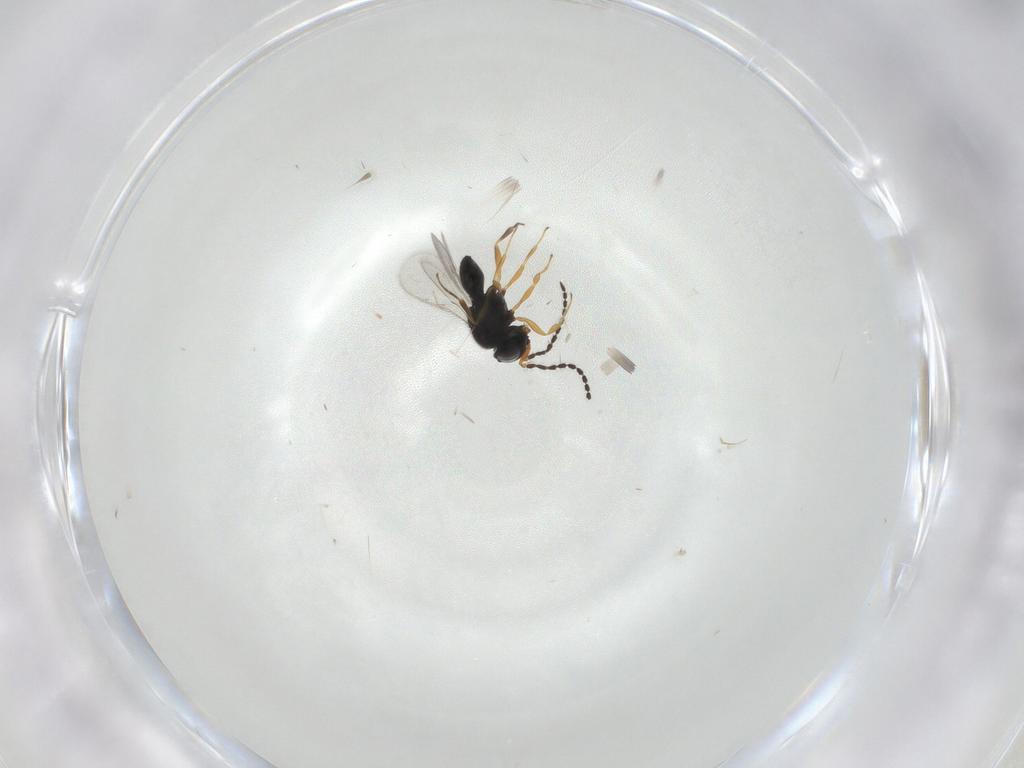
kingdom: Animalia
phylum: Arthropoda
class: Insecta
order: Hymenoptera
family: Scelionidae
